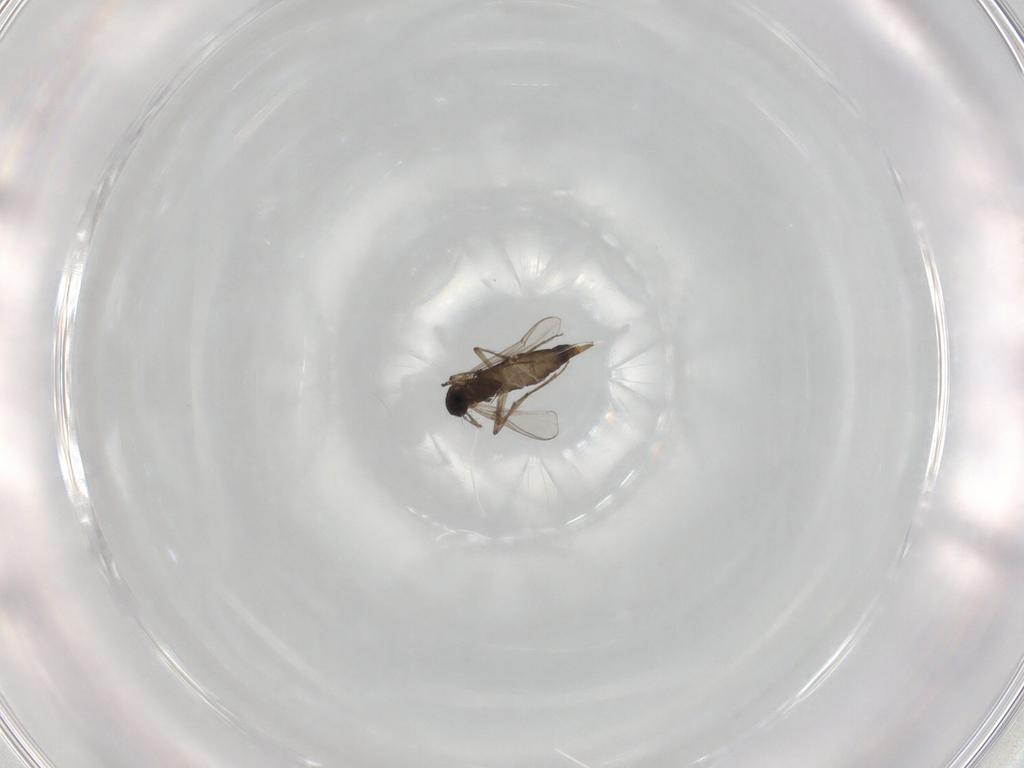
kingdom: Animalia
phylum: Arthropoda
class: Insecta
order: Diptera
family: Chironomidae
